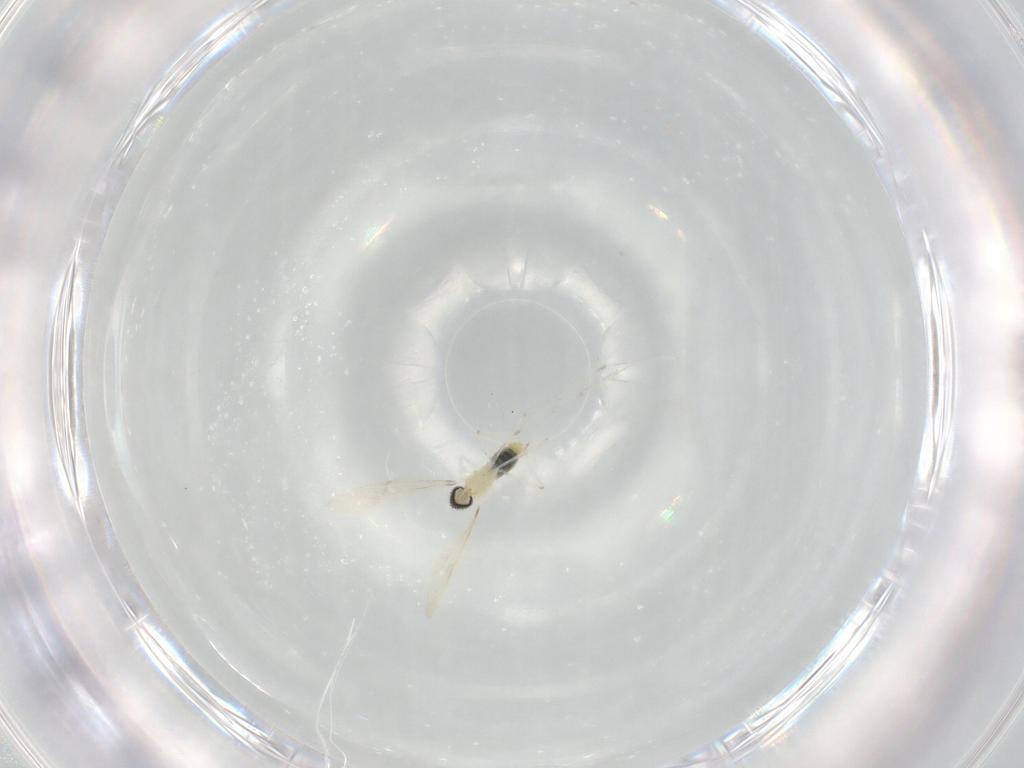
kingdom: Animalia
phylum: Arthropoda
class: Insecta
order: Diptera
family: Cecidomyiidae
